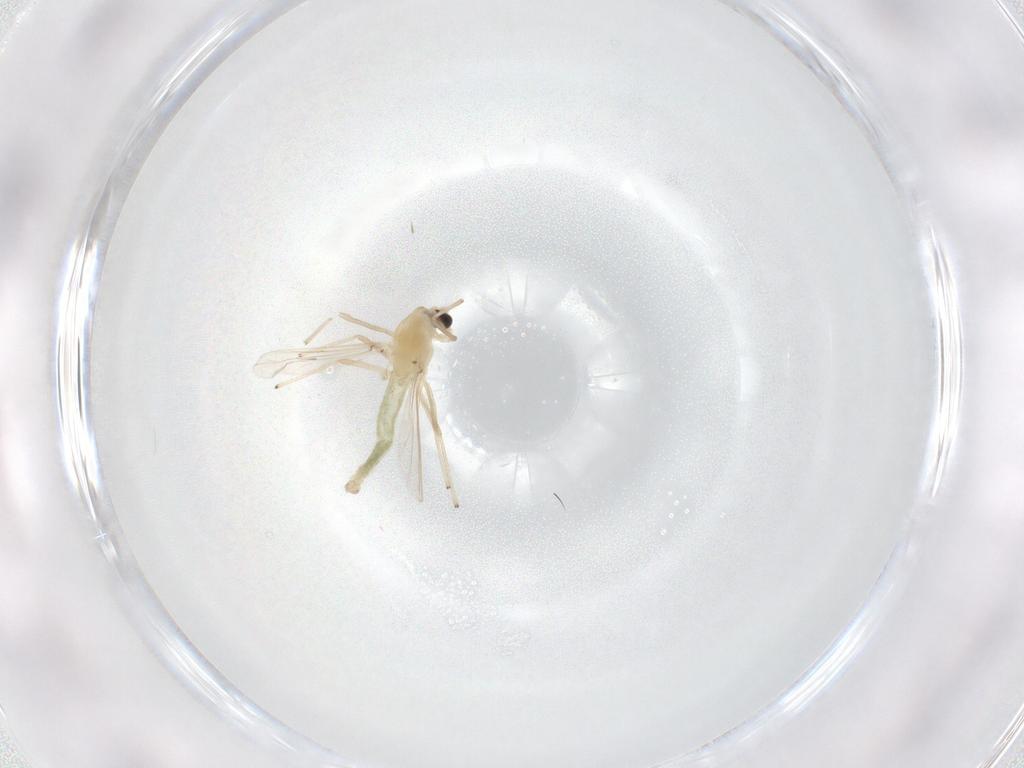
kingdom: Animalia
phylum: Arthropoda
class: Insecta
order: Diptera
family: Chironomidae
